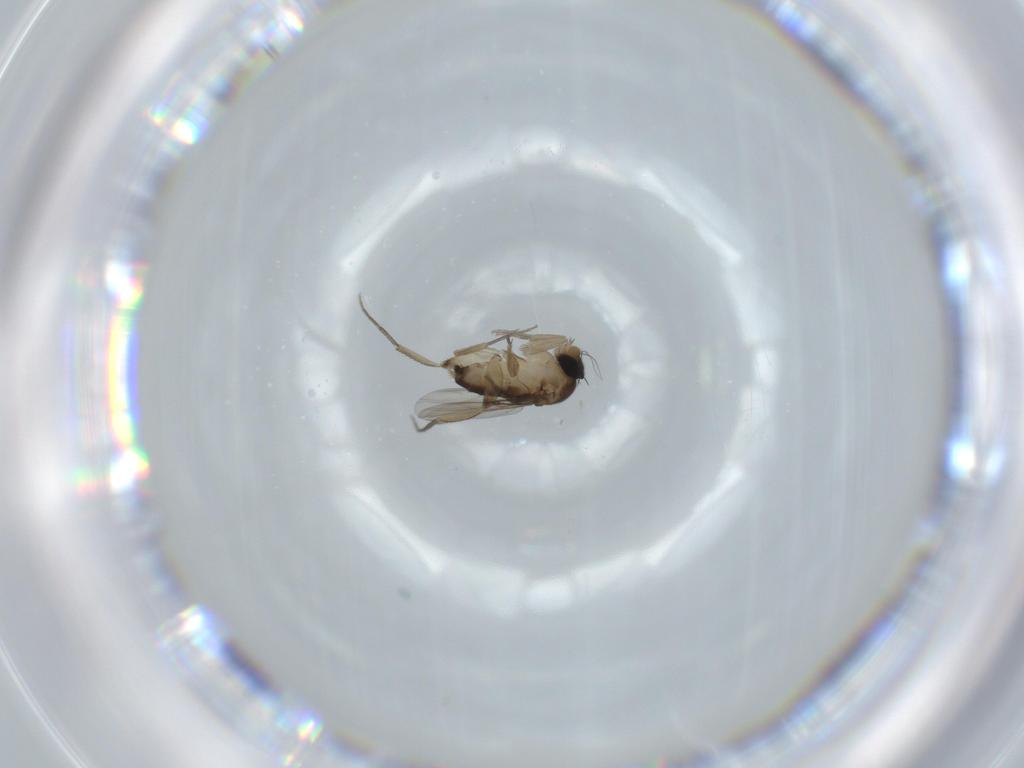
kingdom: Animalia
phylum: Arthropoda
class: Insecta
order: Diptera
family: Phoridae
